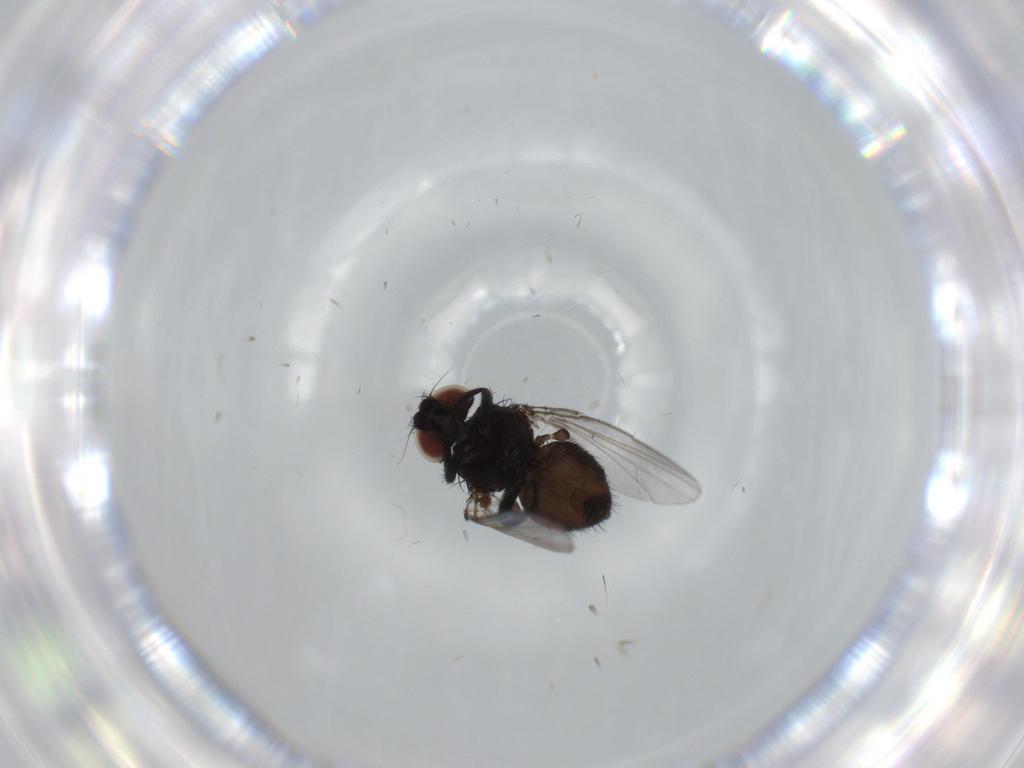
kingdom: Animalia
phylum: Arthropoda
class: Insecta
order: Diptera
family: Milichiidae
